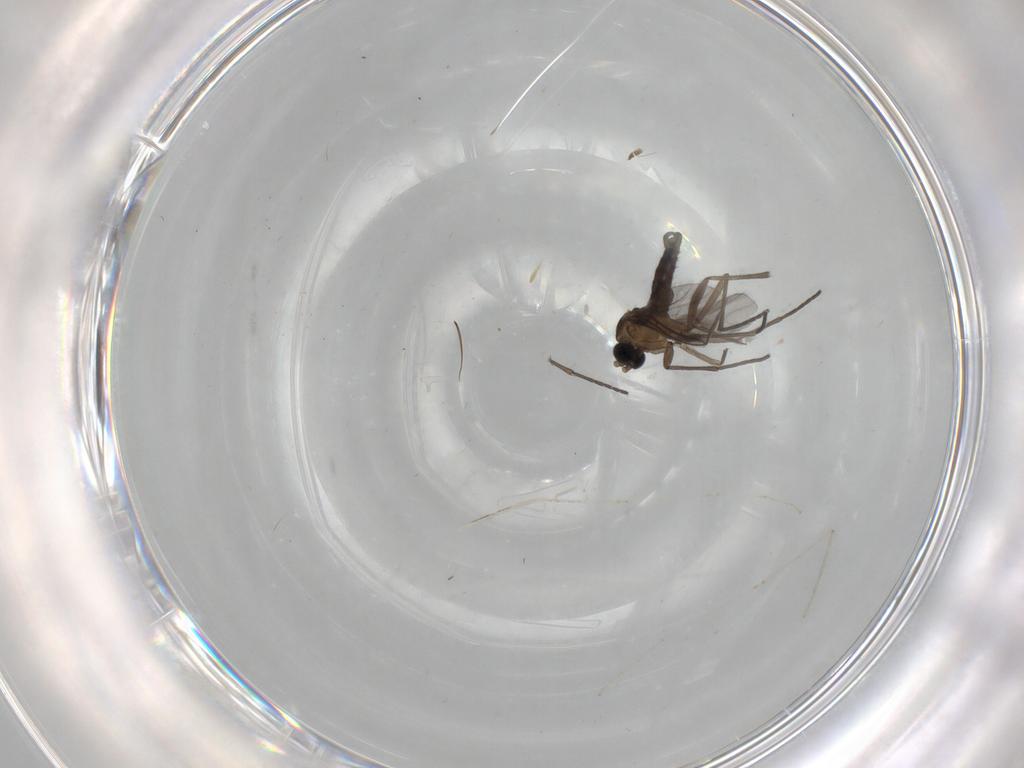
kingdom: Animalia
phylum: Arthropoda
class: Insecta
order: Diptera
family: Cecidomyiidae
